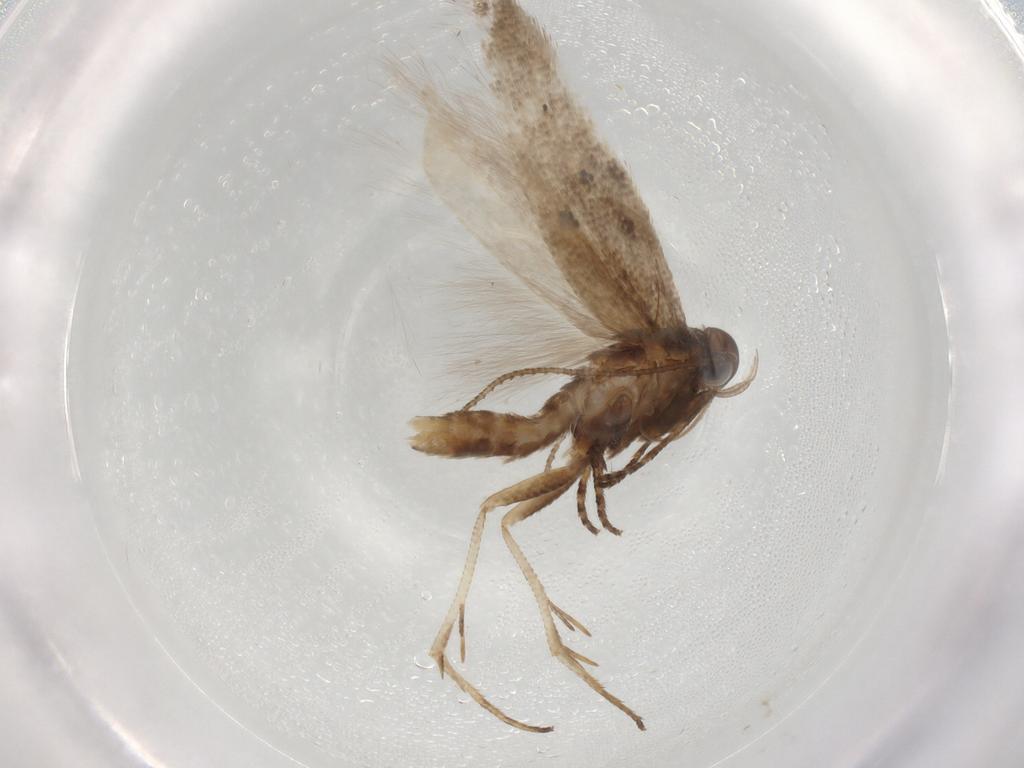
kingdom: Animalia
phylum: Arthropoda
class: Insecta
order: Lepidoptera
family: Gelechiidae
